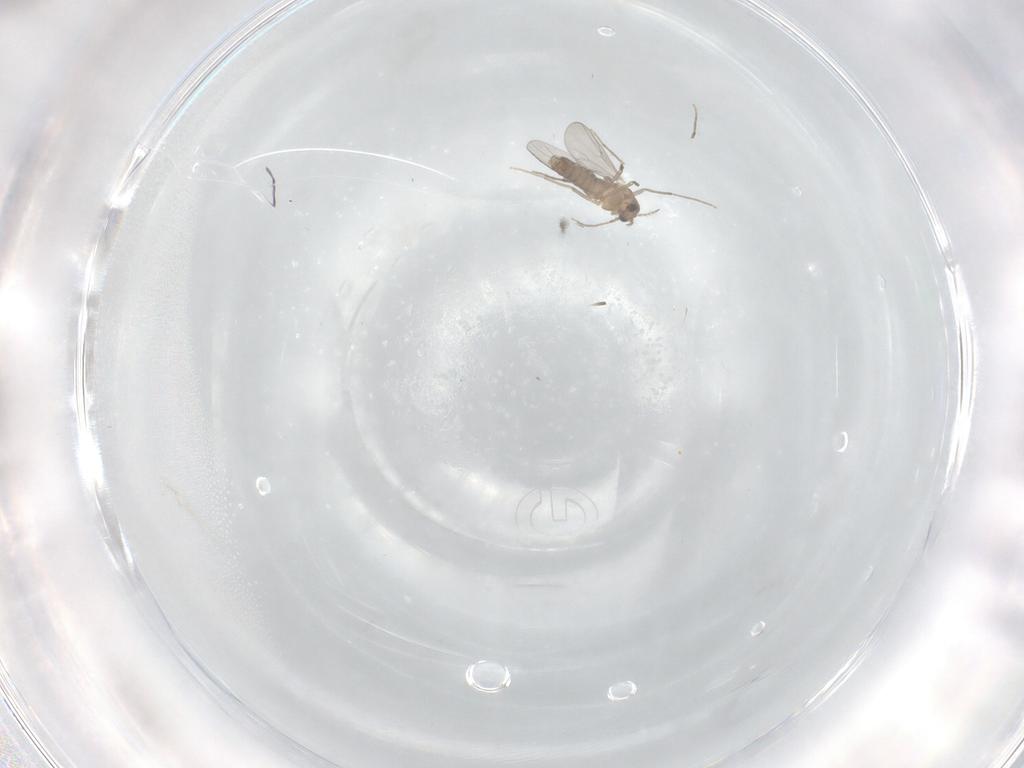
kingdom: Animalia
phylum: Arthropoda
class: Insecta
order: Diptera
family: Chironomidae
